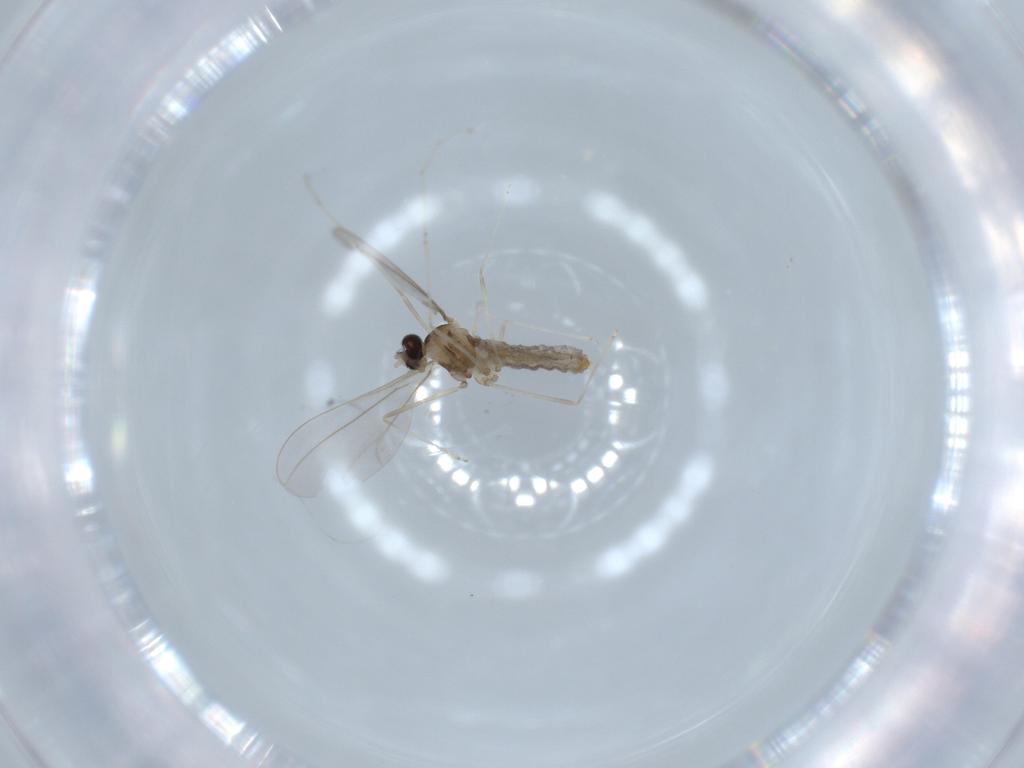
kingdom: Animalia
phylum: Arthropoda
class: Insecta
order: Diptera
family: Cecidomyiidae
